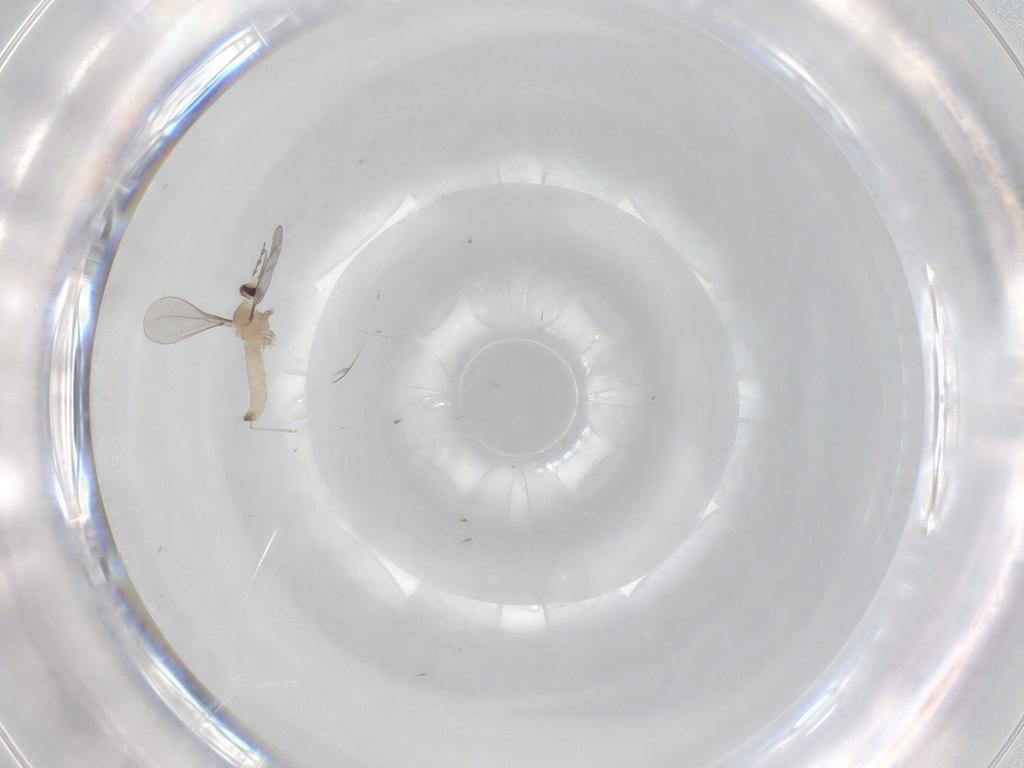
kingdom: Animalia
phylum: Arthropoda
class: Insecta
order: Diptera
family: Cecidomyiidae
